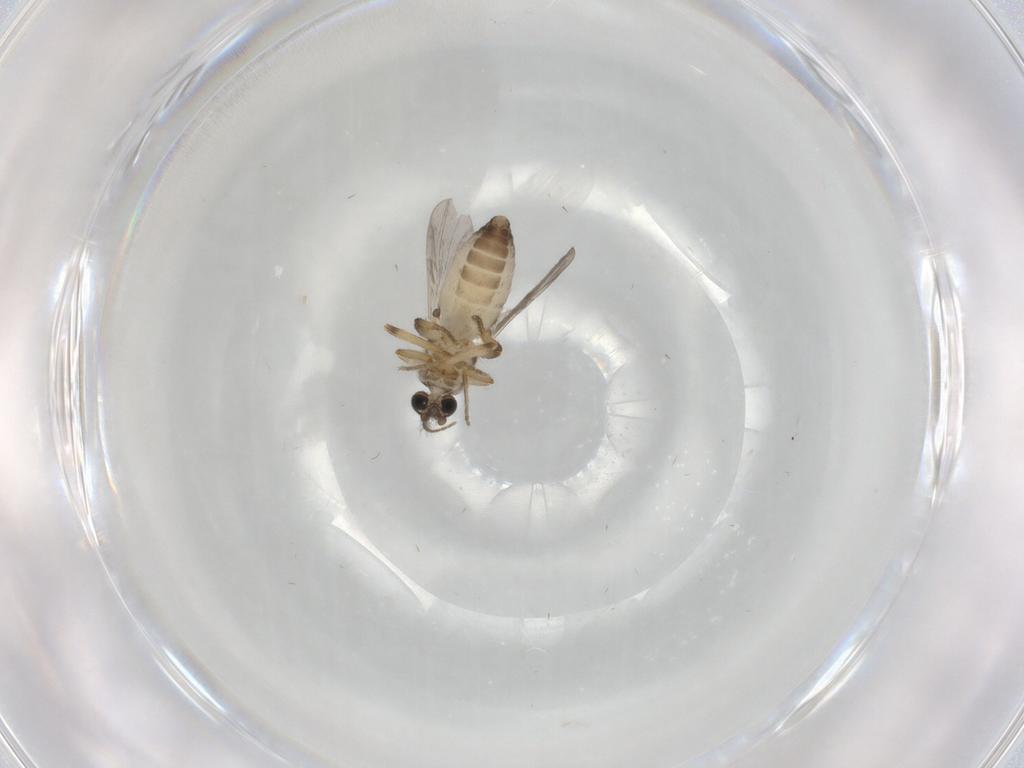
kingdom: Animalia
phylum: Arthropoda
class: Insecta
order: Diptera
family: Ceratopogonidae
